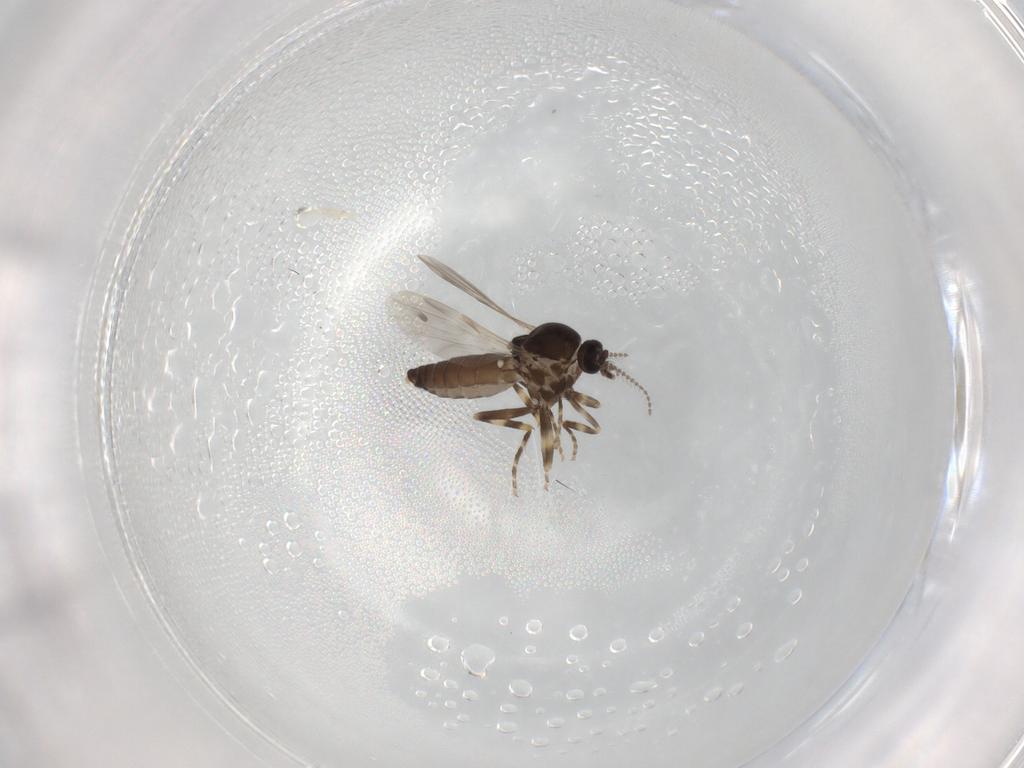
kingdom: Animalia
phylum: Arthropoda
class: Insecta
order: Diptera
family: Ceratopogonidae
